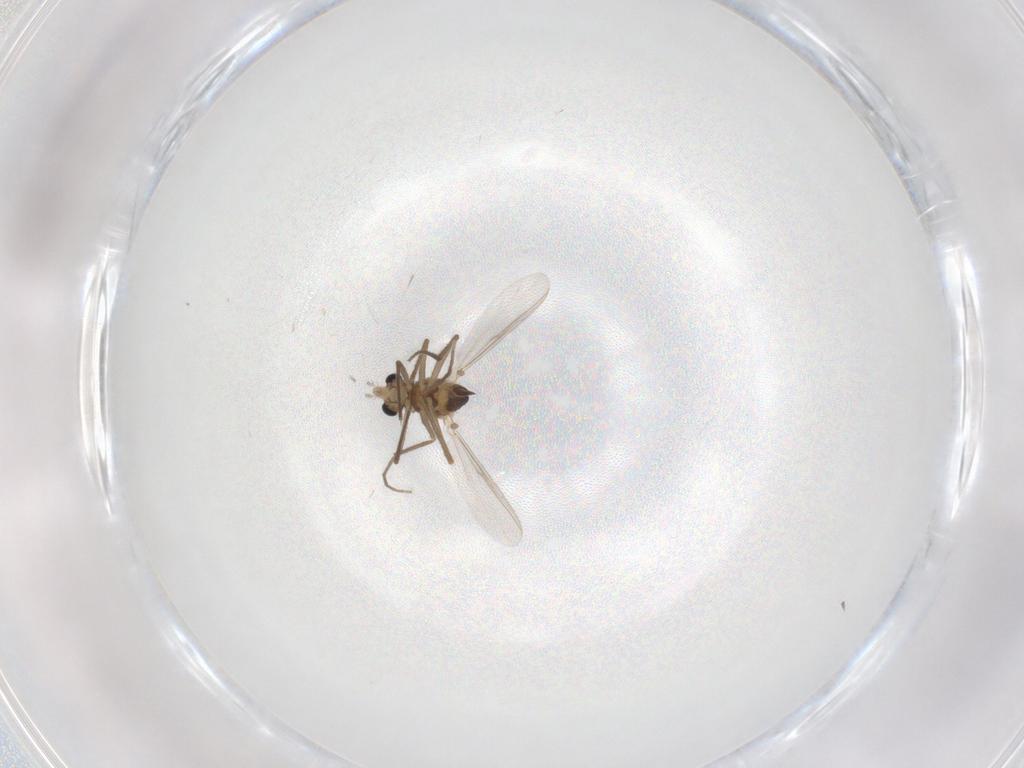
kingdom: Animalia
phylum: Arthropoda
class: Insecta
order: Diptera
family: Chironomidae
